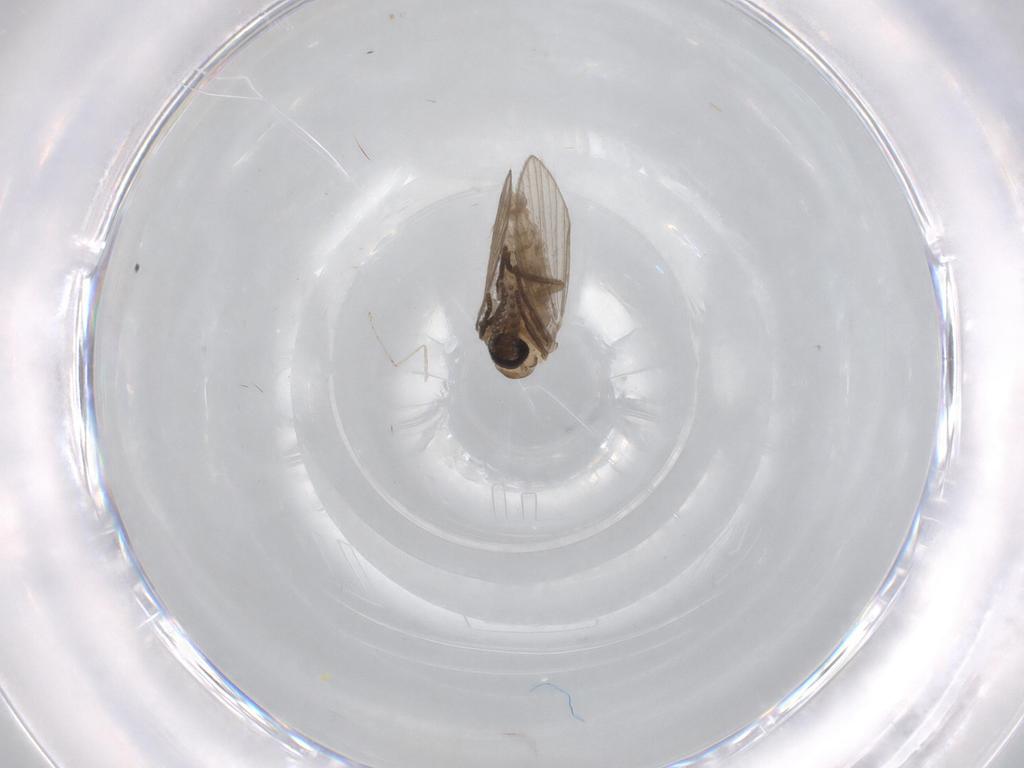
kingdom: Animalia
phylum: Arthropoda
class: Insecta
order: Diptera
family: Psychodidae
